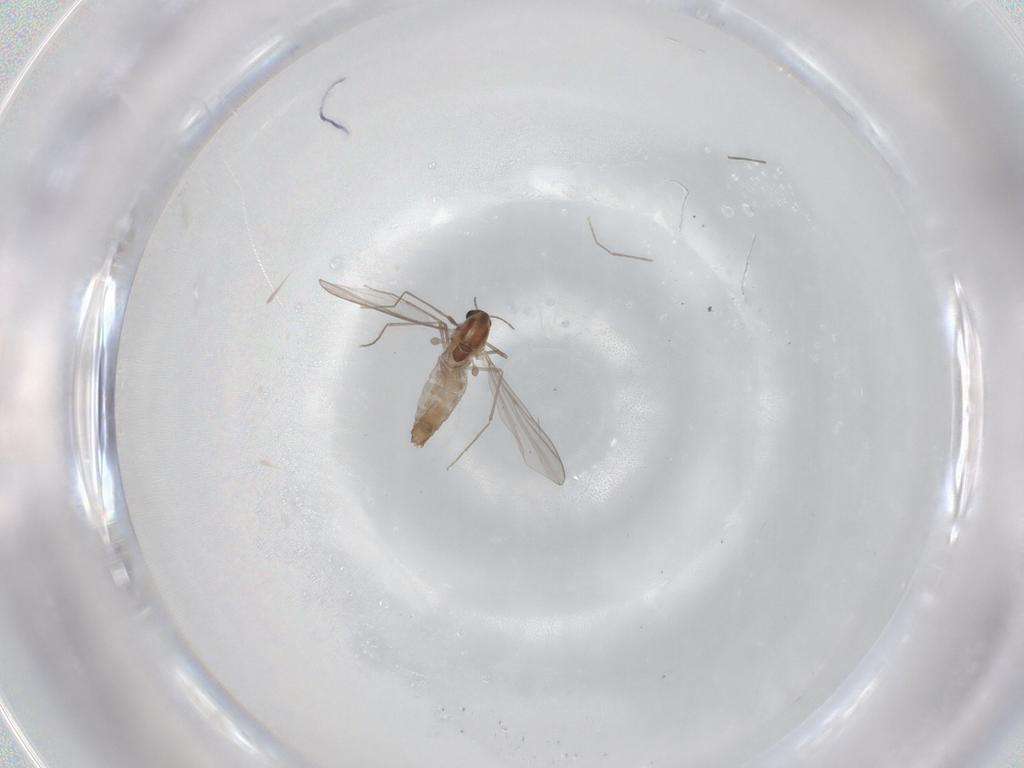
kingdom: Animalia
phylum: Arthropoda
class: Insecta
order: Diptera
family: Chironomidae
